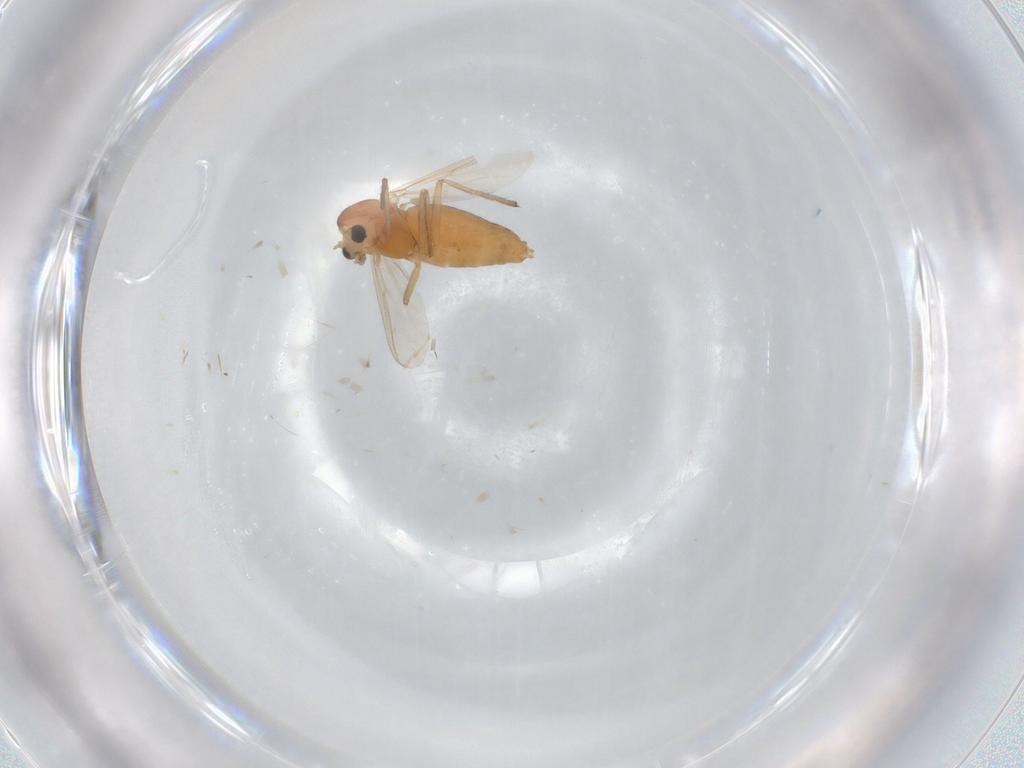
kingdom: Animalia
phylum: Arthropoda
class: Insecta
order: Diptera
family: Chironomidae
